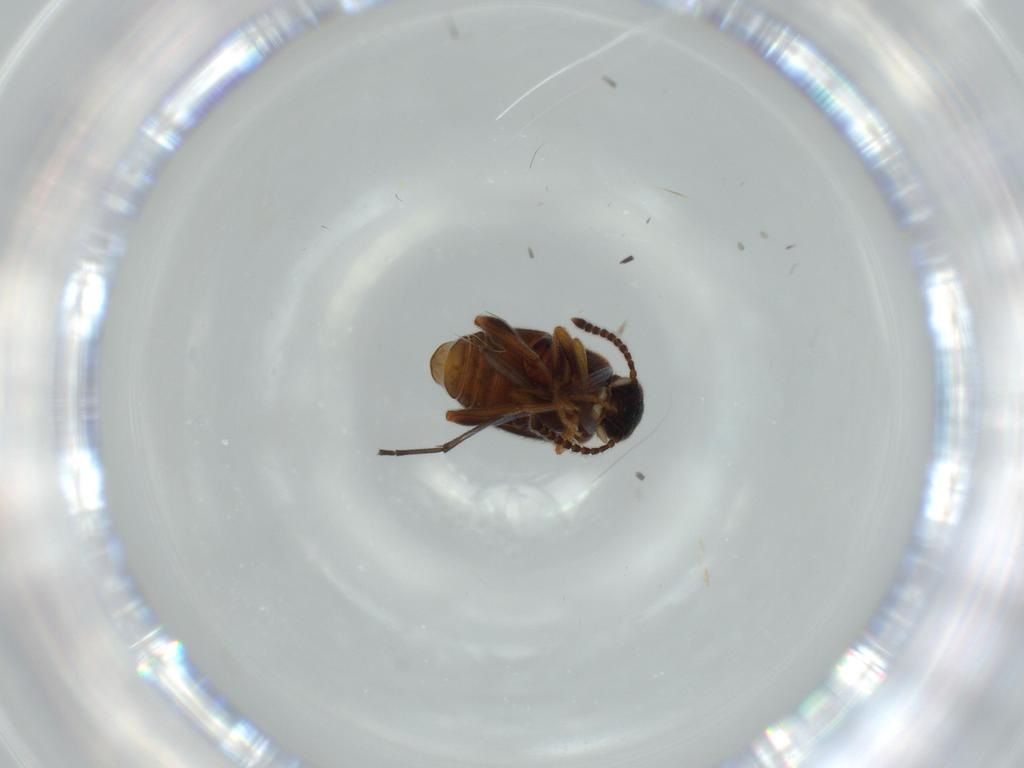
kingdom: Animalia
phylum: Arthropoda
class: Insecta
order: Coleoptera
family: Aderidae
